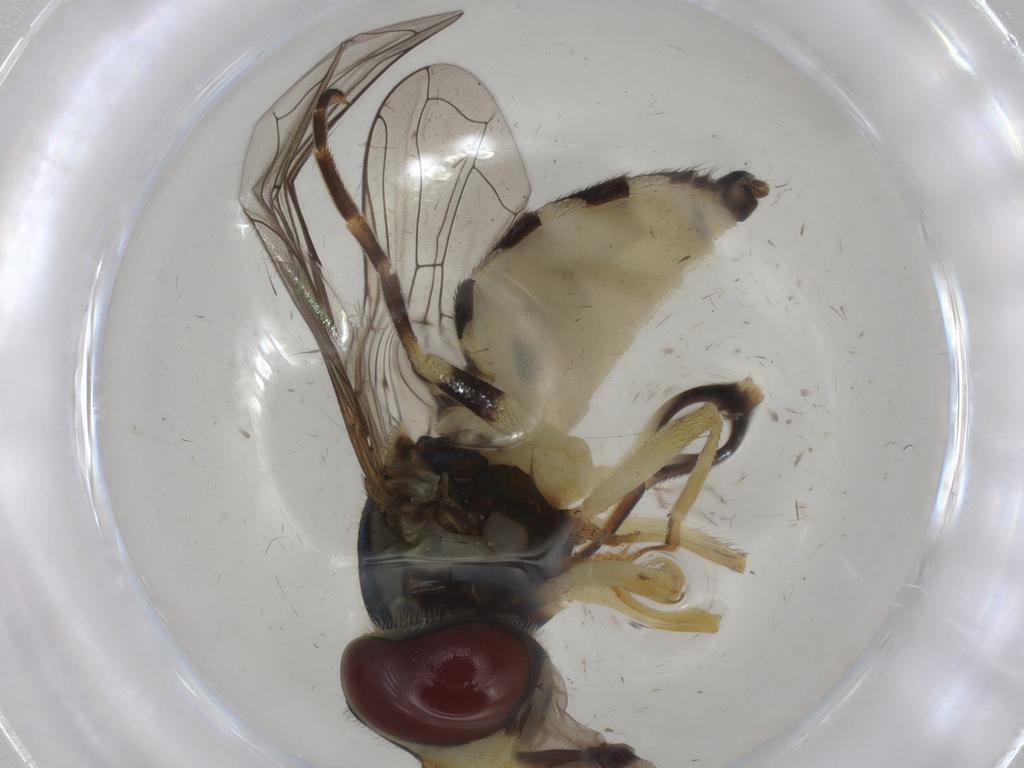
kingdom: Animalia
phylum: Arthropoda
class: Insecta
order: Diptera
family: Syrphidae
